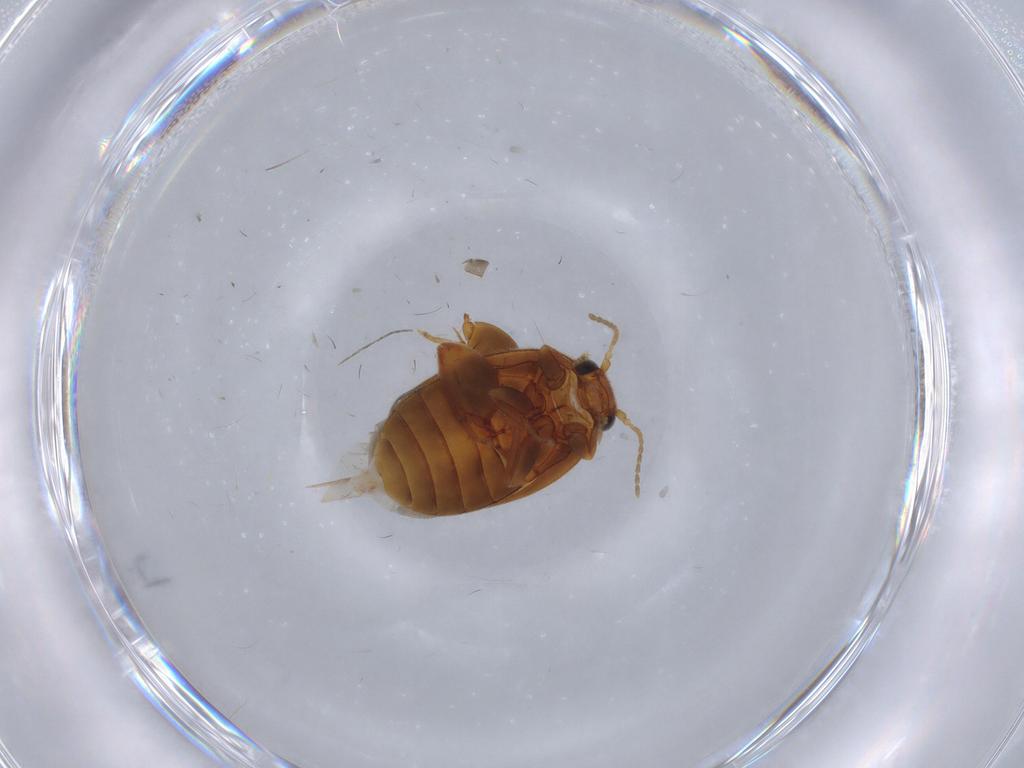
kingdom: Animalia
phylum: Arthropoda
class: Insecta
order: Coleoptera
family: Scirtidae
